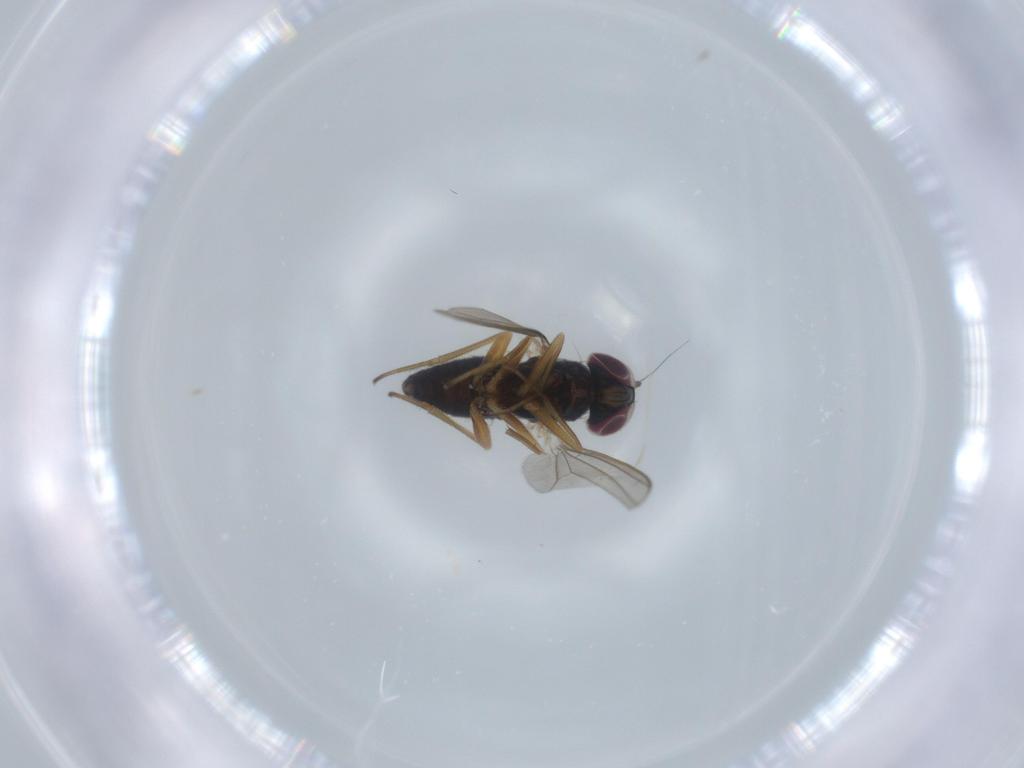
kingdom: Animalia
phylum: Arthropoda
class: Insecta
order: Diptera
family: Dolichopodidae
